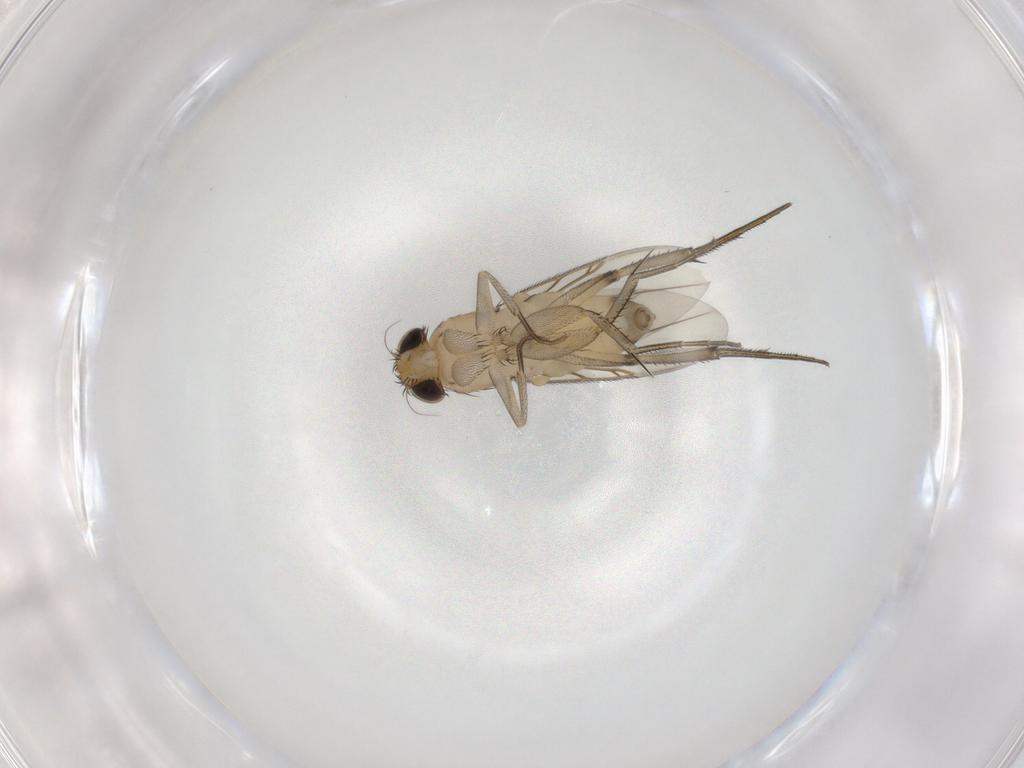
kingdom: Animalia
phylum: Arthropoda
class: Insecta
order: Diptera
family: Phoridae
